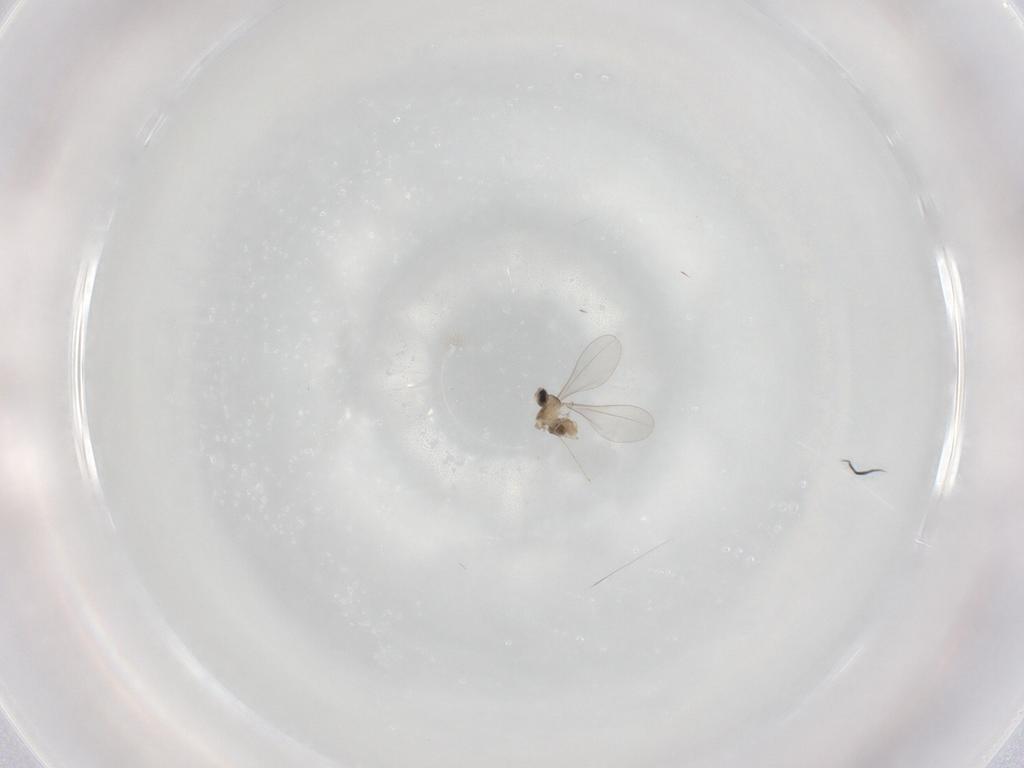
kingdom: Animalia
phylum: Arthropoda
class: Insecta
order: Diptera
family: Cecidomyiidae
